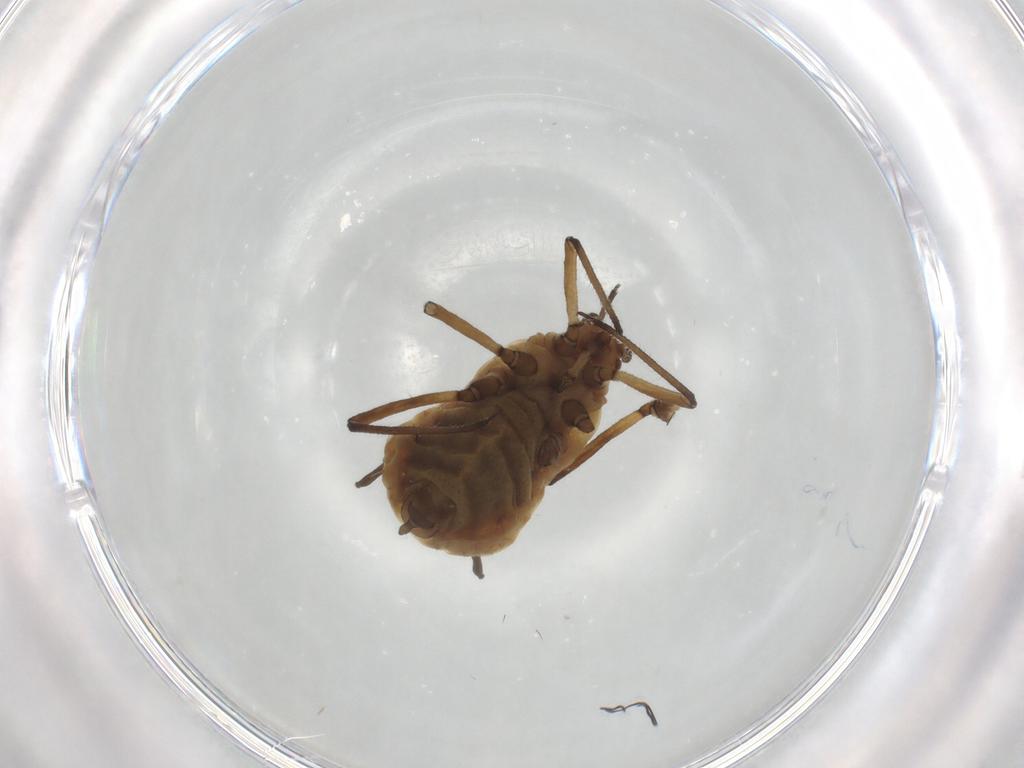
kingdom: Animalia
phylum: Arthropoda
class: Insecta
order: Hemiptera
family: Aphididae
